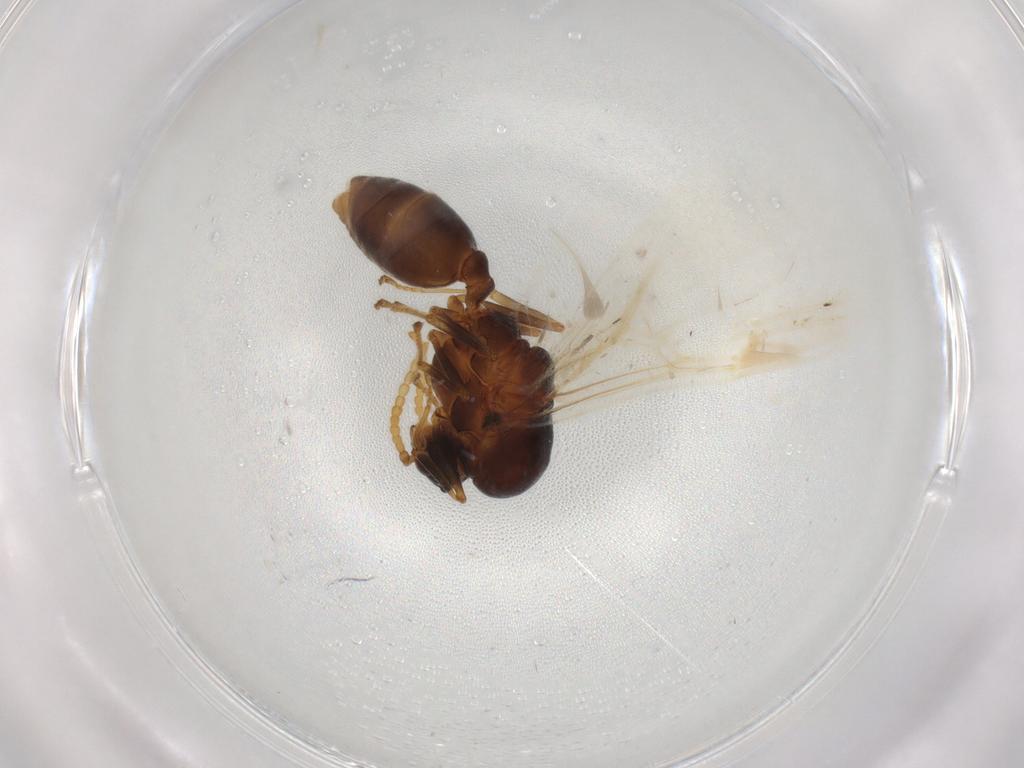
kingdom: Animalia
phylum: Arthropoda
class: Insecta
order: Hymenoptera
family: Formicidae
